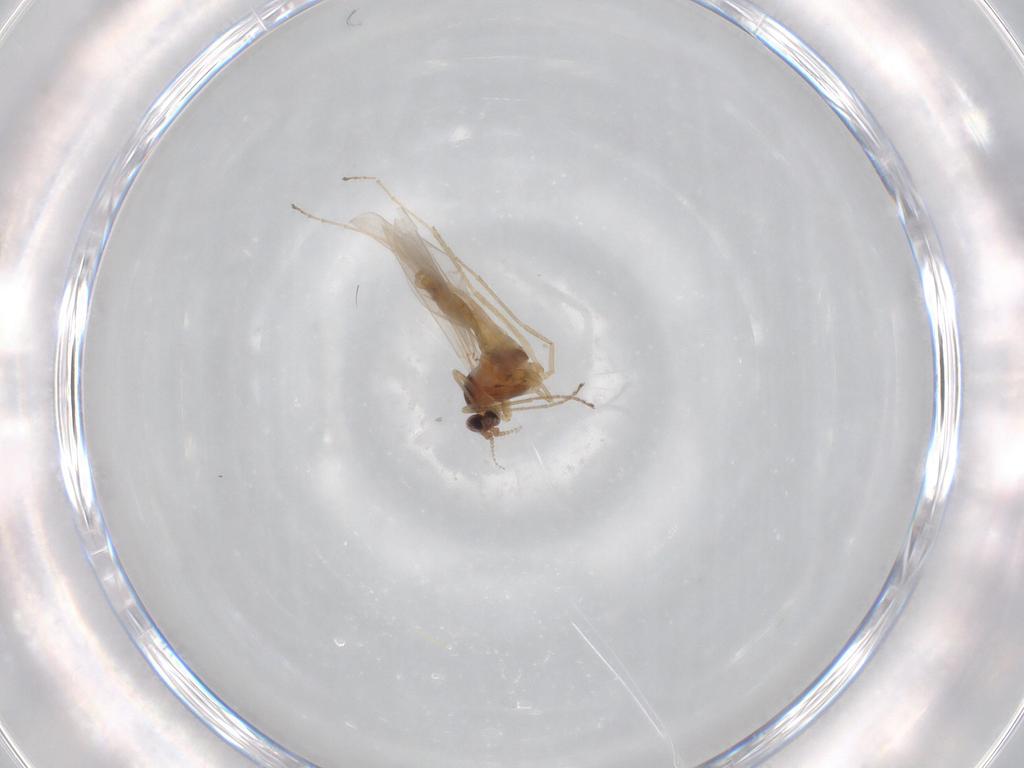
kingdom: Animalia
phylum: Arthropoda
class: Insecta
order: Diptera
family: Cecidomyiidae
